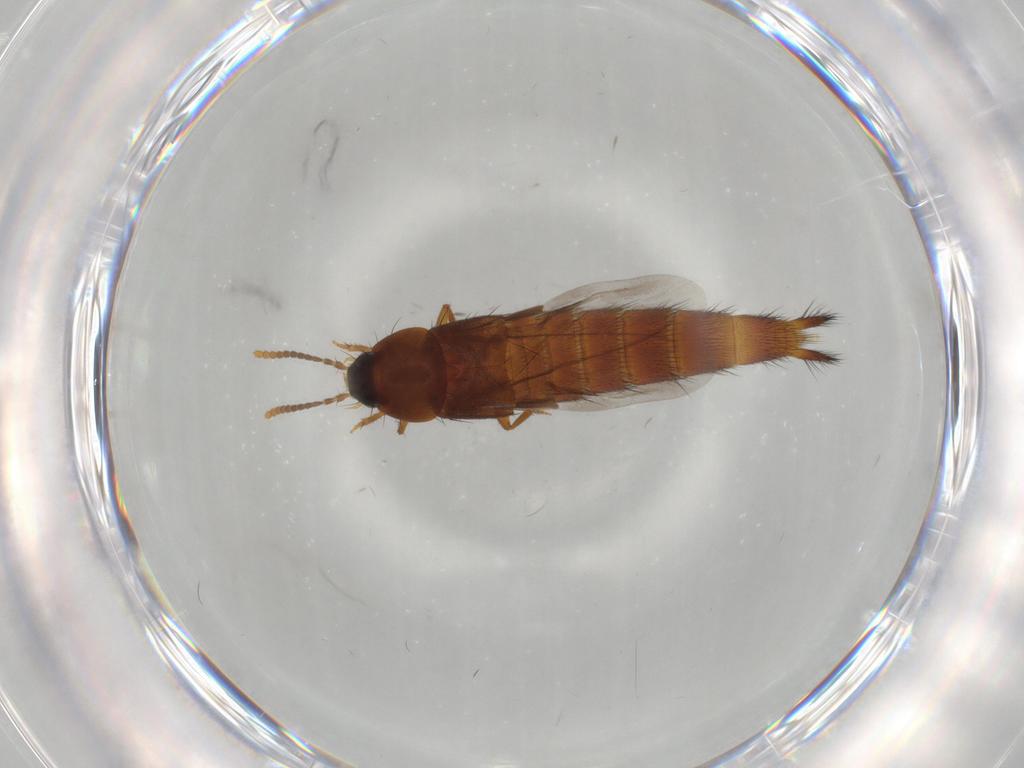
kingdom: Animalia
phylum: Arthropoda
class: Insecta
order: Coleoptera
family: Staphylinidae
